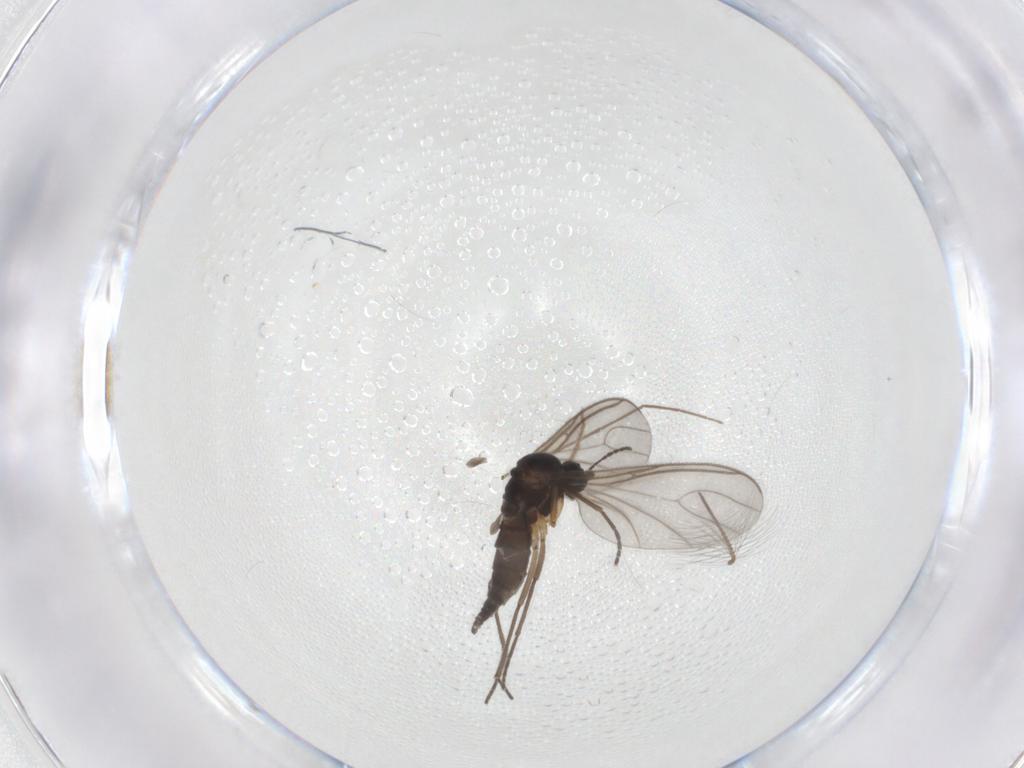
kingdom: Animalia
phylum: Arthropoda
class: Insecta
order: Diptera
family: Sciaridae
